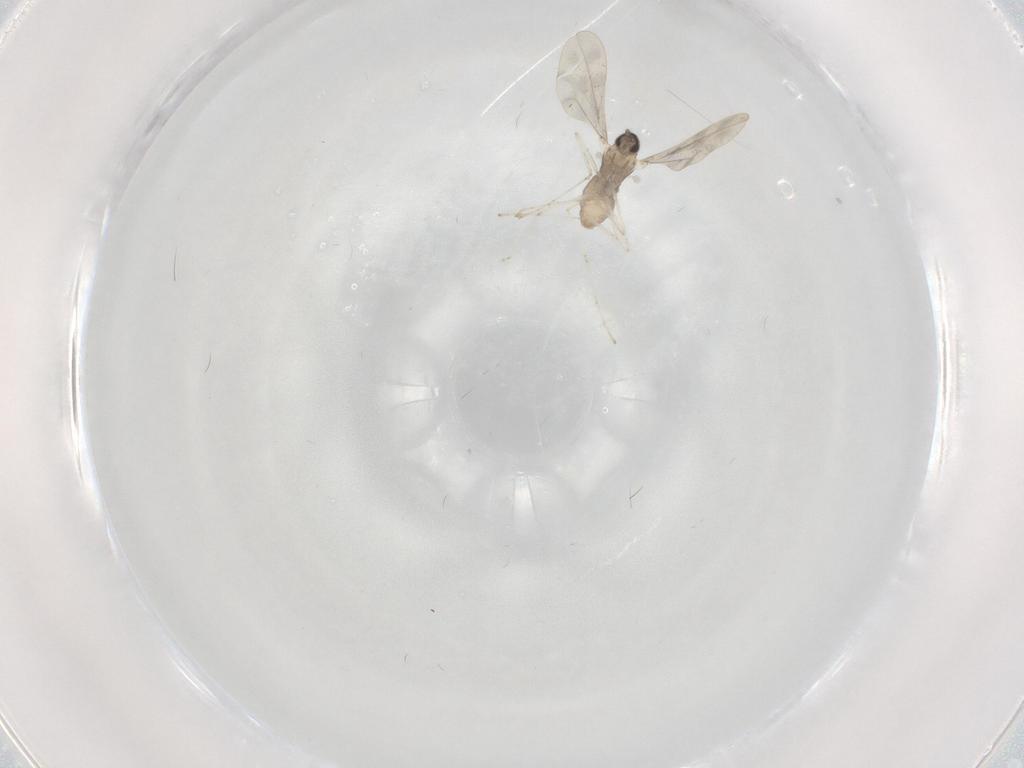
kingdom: Animalia
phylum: Arthropoda
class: Insecta
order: Diptera
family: Cecidomyiidae
